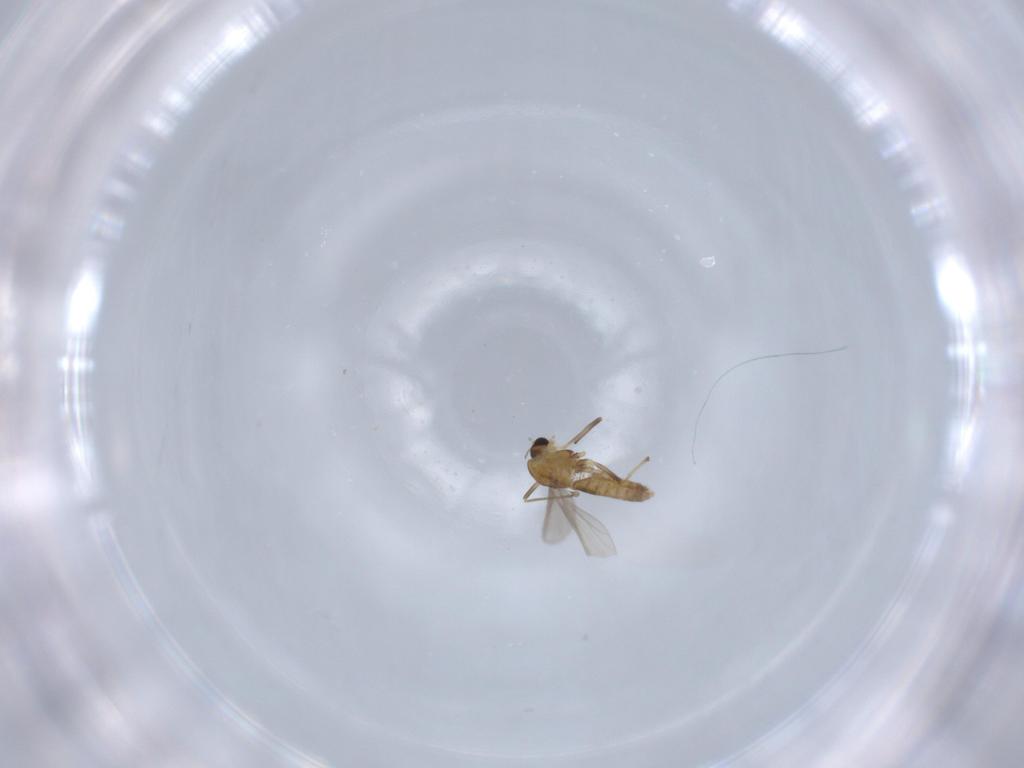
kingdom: Animalia
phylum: Arthropoda
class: Insecta
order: Diptera
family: Chironomidae
